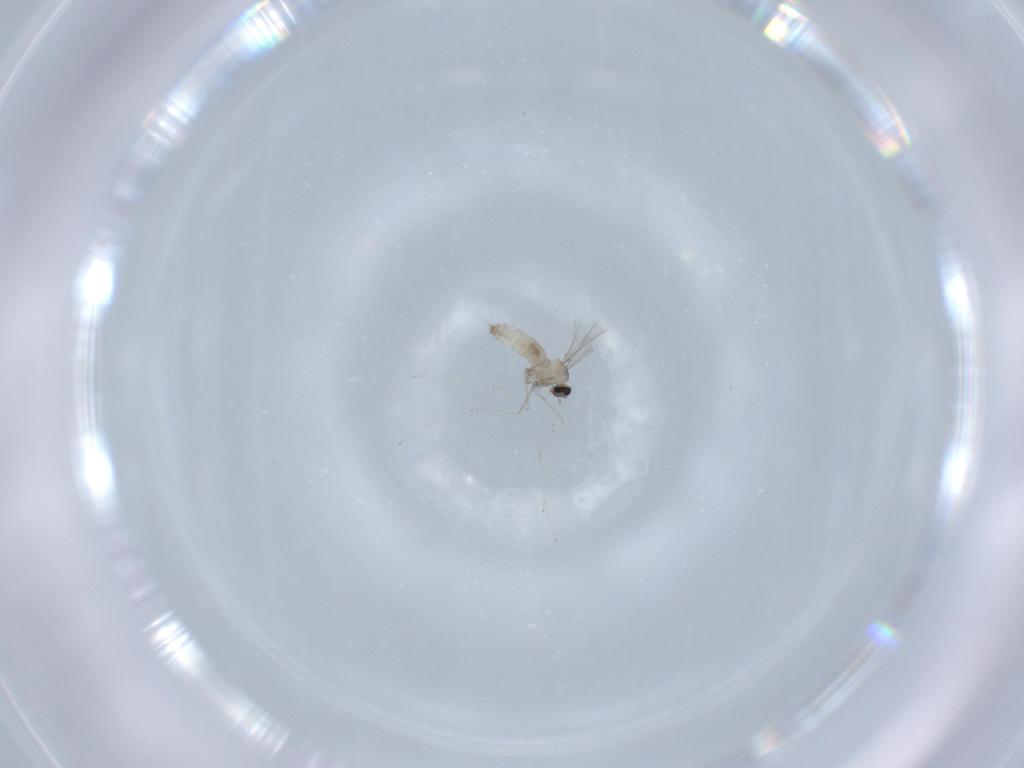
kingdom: Animalia
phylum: Arthropoda
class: Insecta
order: Diptera
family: Cecidomyiidae
